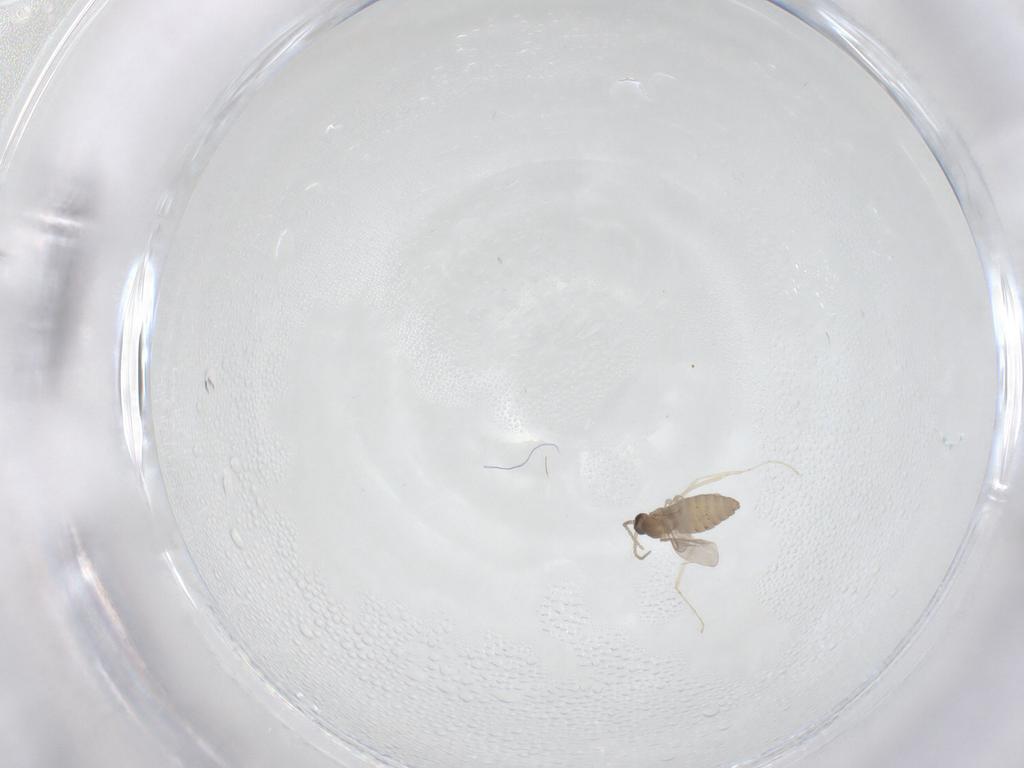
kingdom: Animalia
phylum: Arthropoda
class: Insecta
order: Diptera
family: Cecidomyiidae
